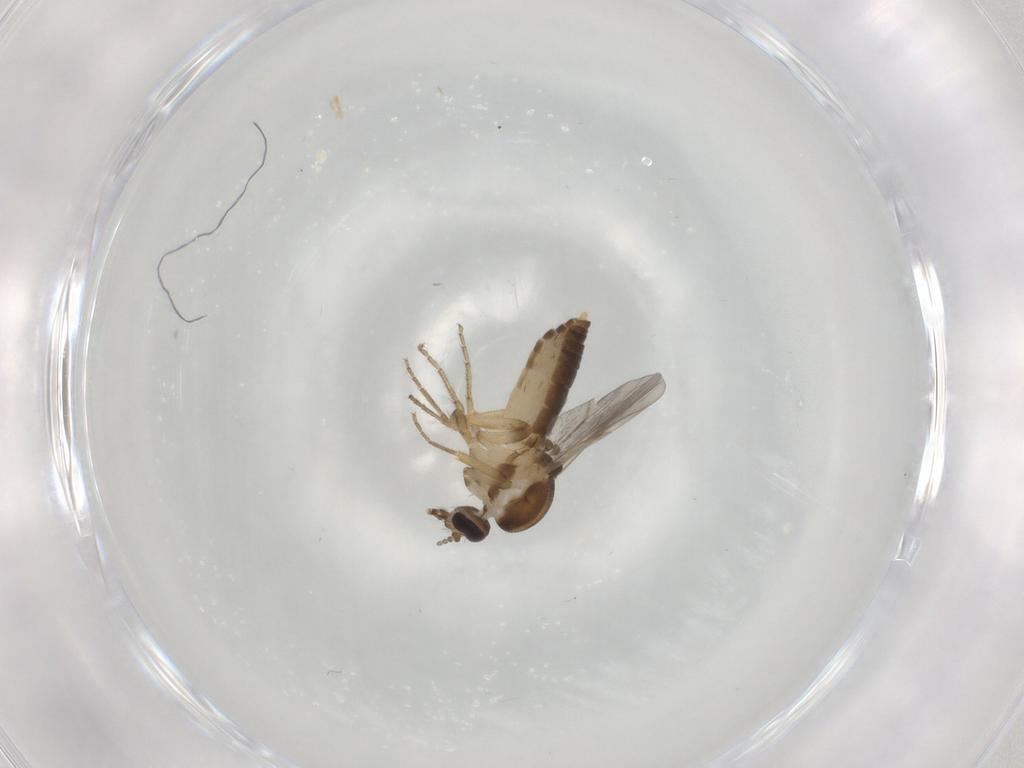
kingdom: Animalia
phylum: Arthropoda
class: Insecta
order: Diptera
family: Ceratopogonidae
